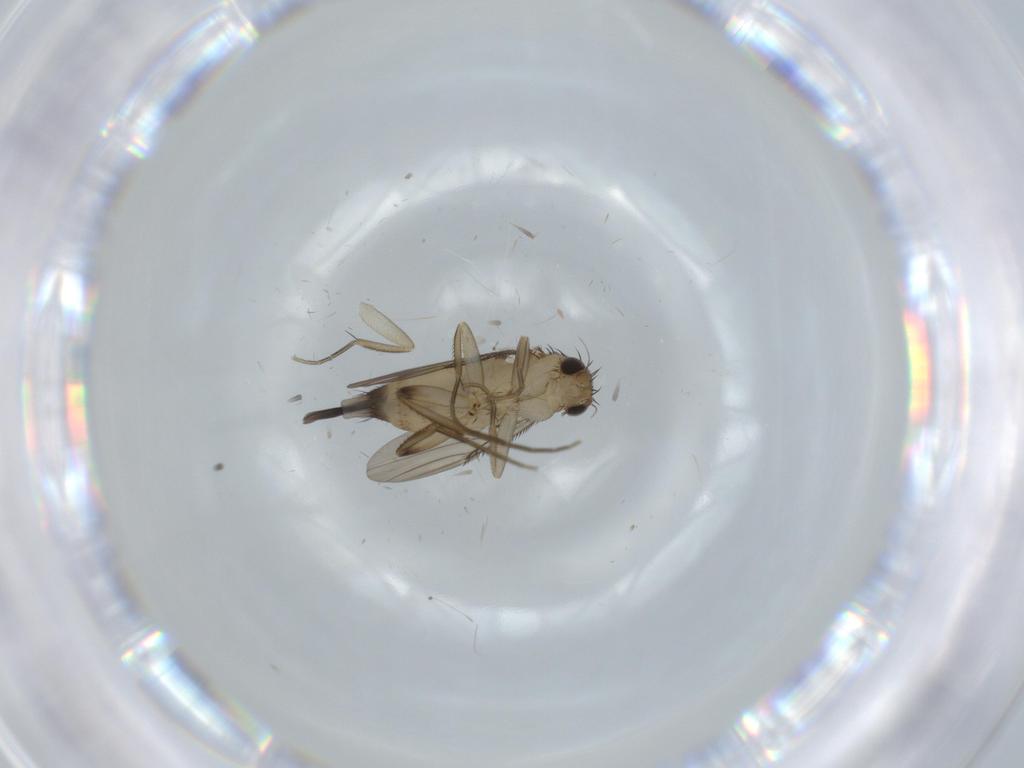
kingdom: Animalia
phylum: Arthropoda
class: Insecta
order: Diptera
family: Phoridae
